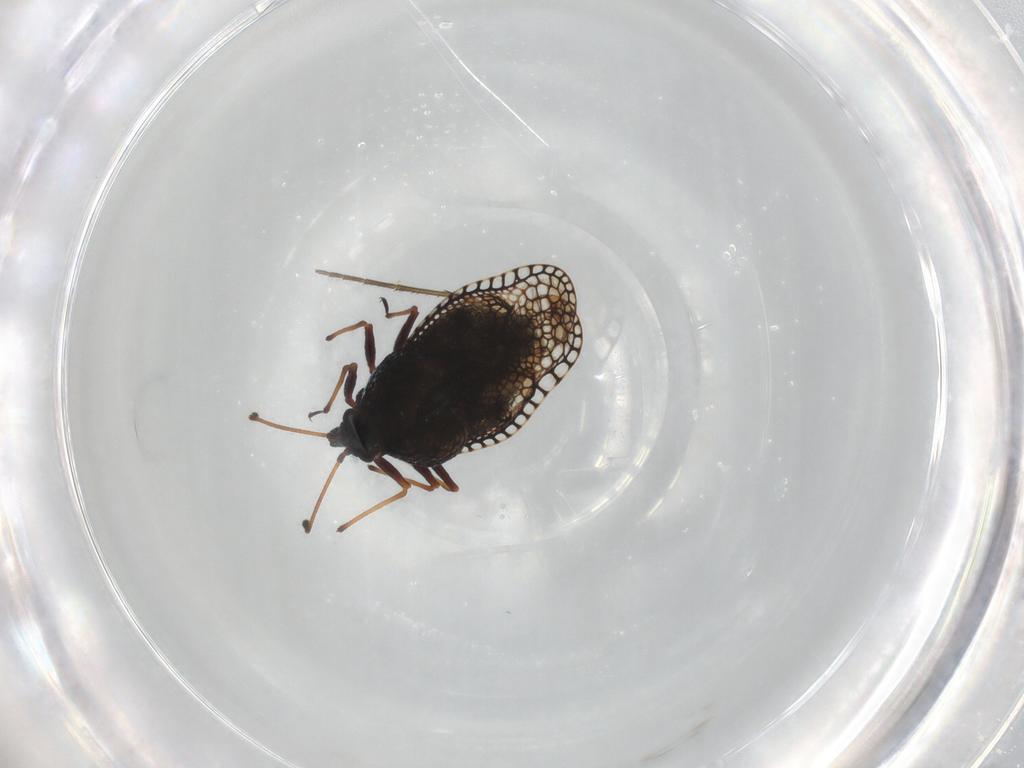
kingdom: Animalia
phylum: Arthropoda
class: Insecta
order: Hemiptera
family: Tingidae
